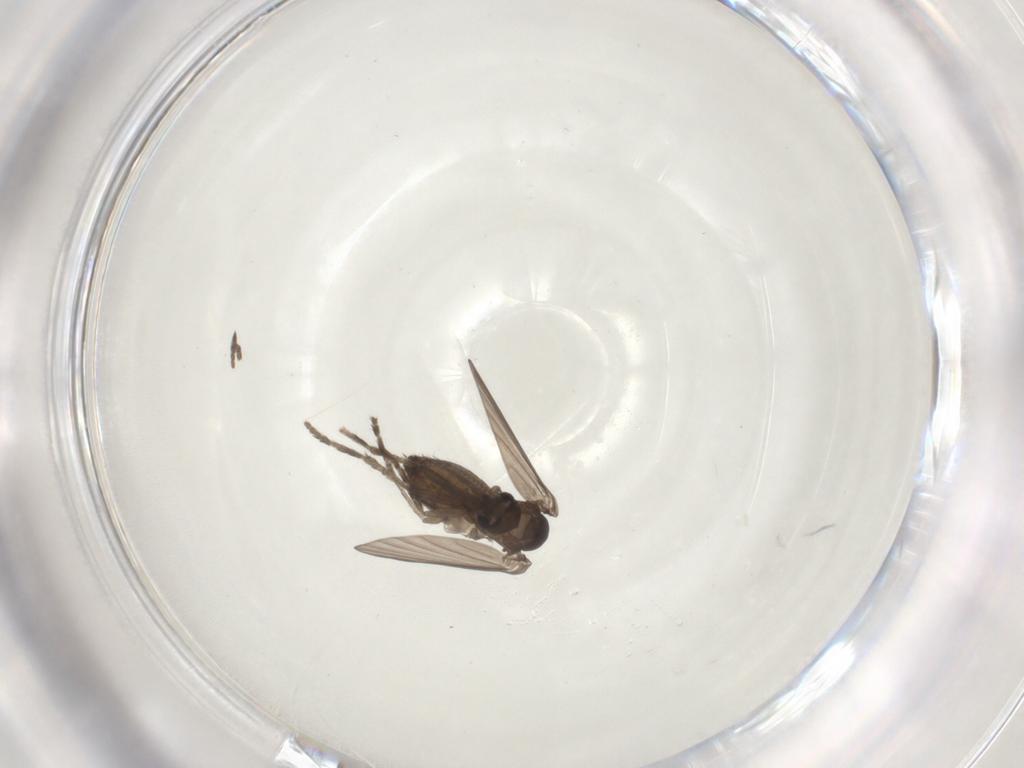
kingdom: Animalia
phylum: Arthropoda
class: Insecta
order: Diptera
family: Psychodidae
